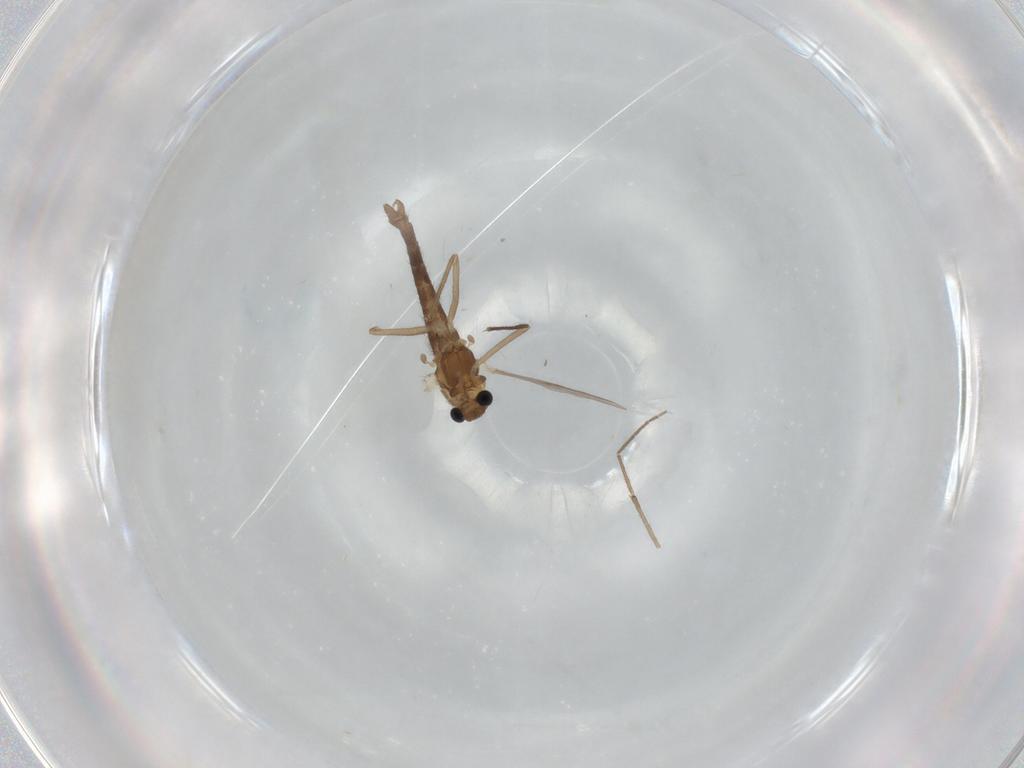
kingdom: Animalia
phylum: Arthropoda
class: Insecta
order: Diptera
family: Chironomidae
